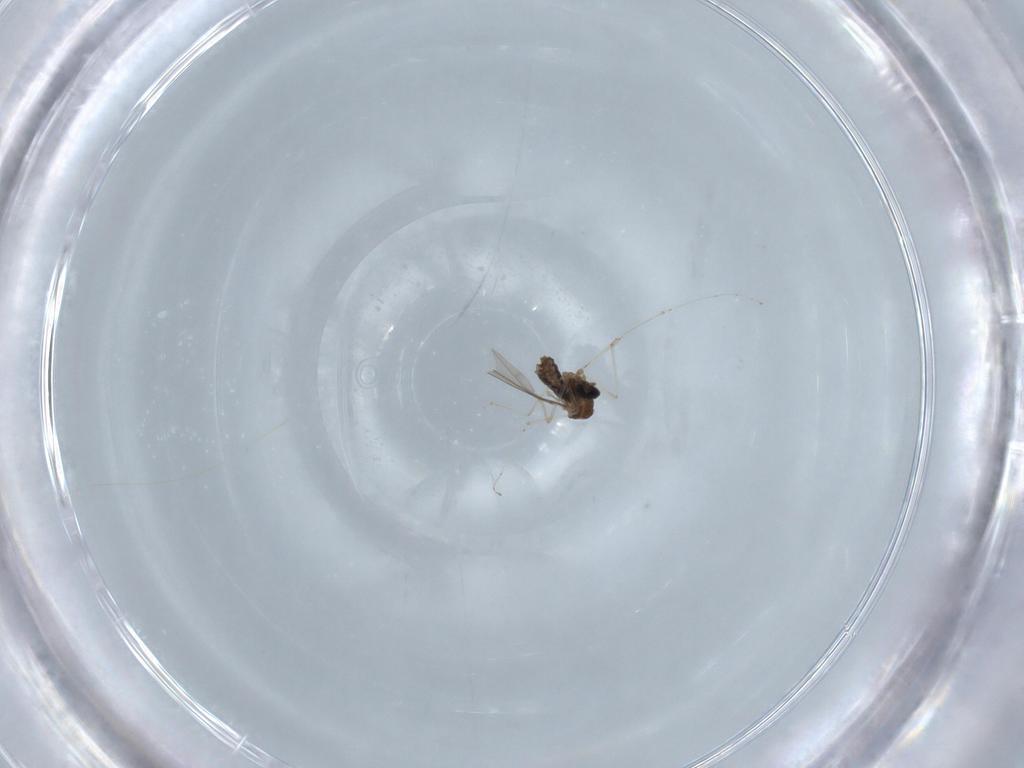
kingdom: Animalia
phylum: Arthropoda
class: Insecta
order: Diptera
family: Cecidomyiidae
